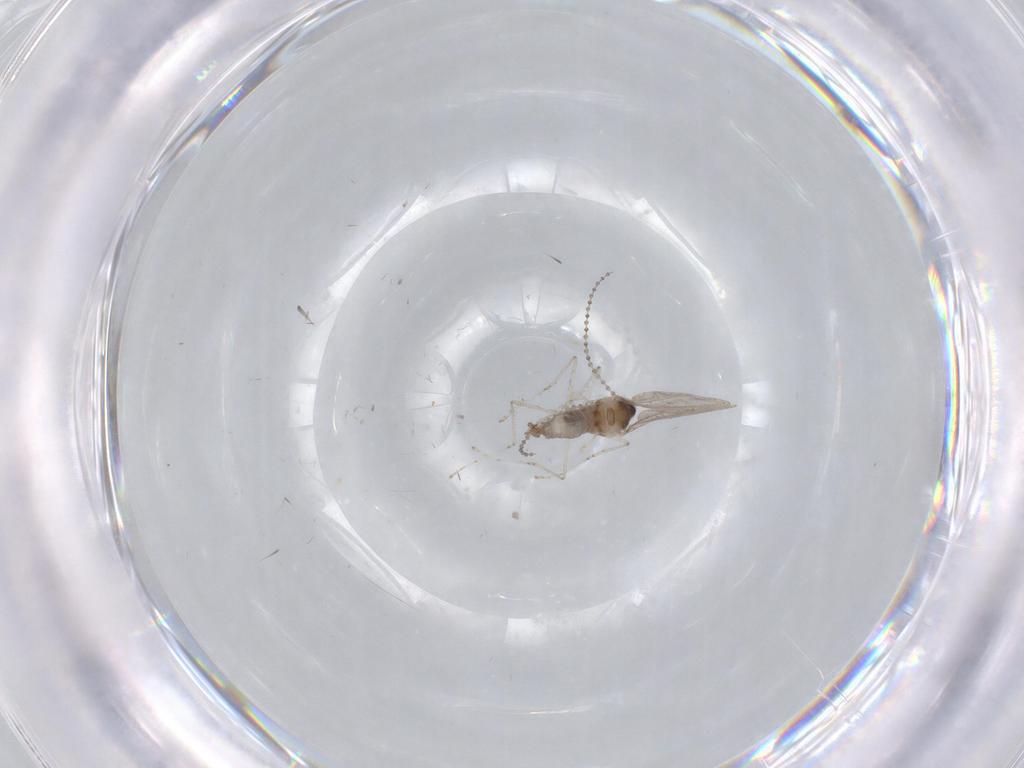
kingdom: Animalia
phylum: Arthropoda
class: Insecta
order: Diptera
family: Cecidomyiidae
